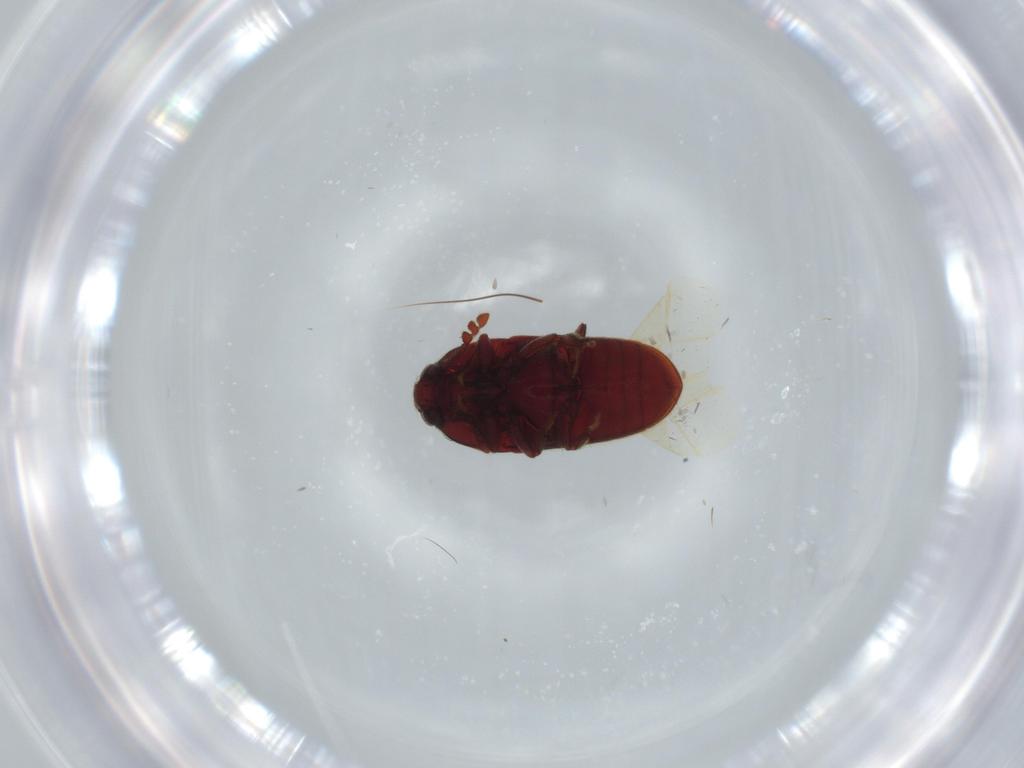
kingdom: Animalia
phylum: Arthropoda
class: Insecta
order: Coleoptera
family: Throscidae
